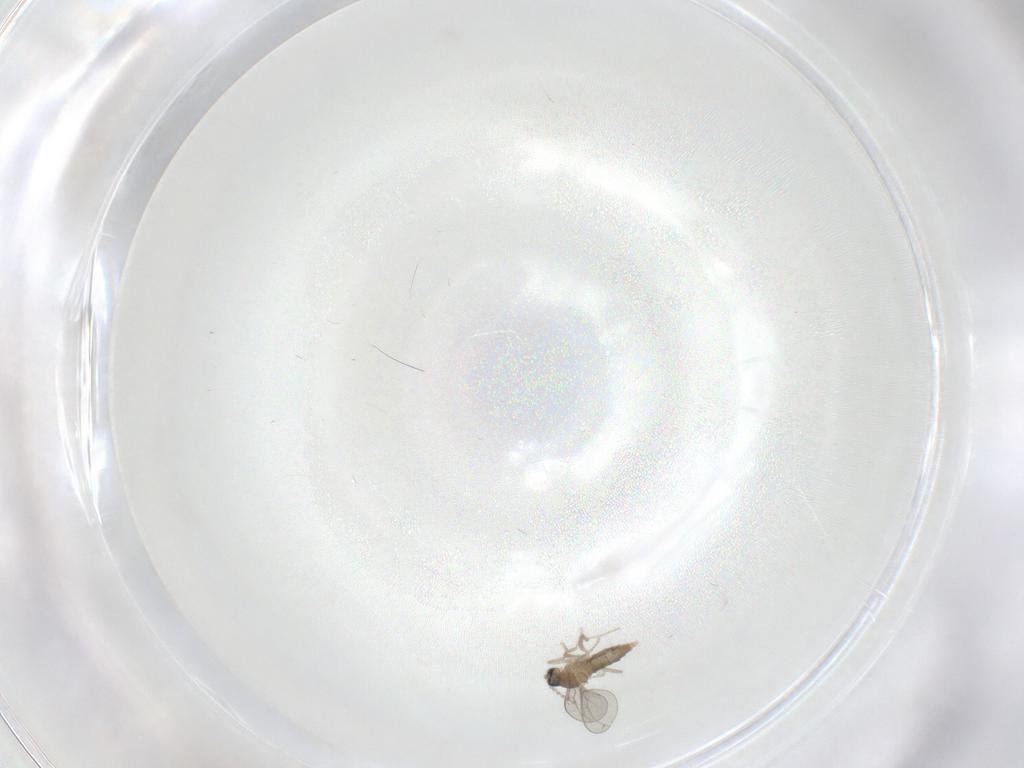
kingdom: Animalia
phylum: Arthropoda
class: Insecta
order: Diptera
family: Cecidomyiidae
